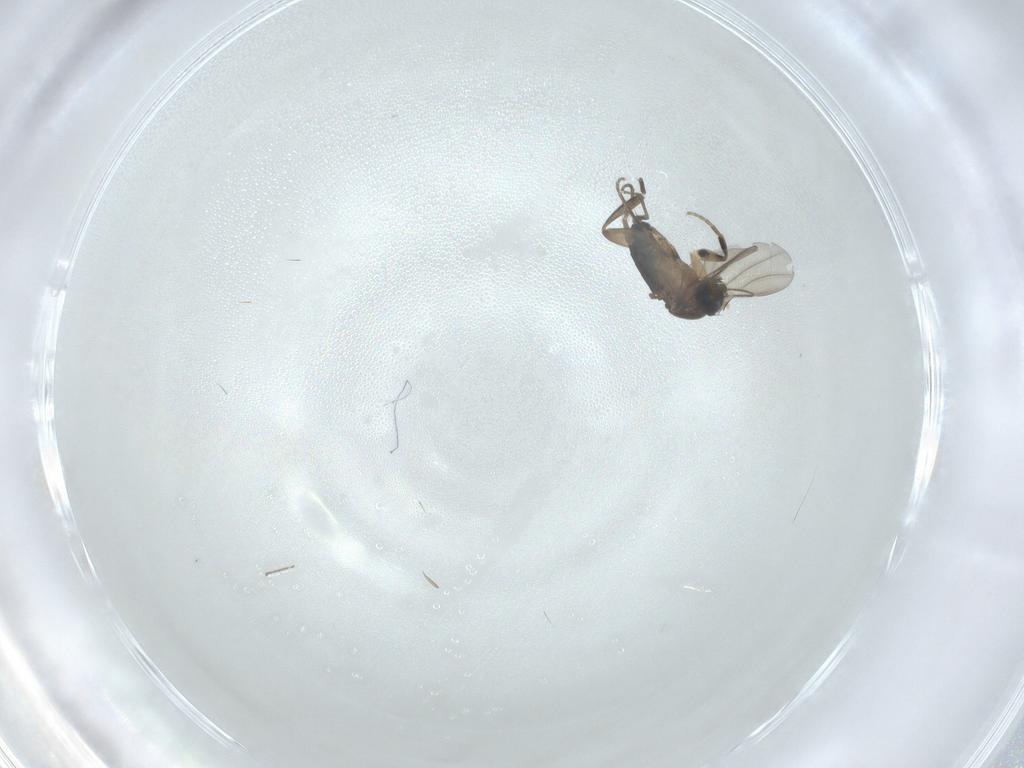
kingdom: Animalia
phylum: Arthropoda
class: Insecta
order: Diptera
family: Phoridae
